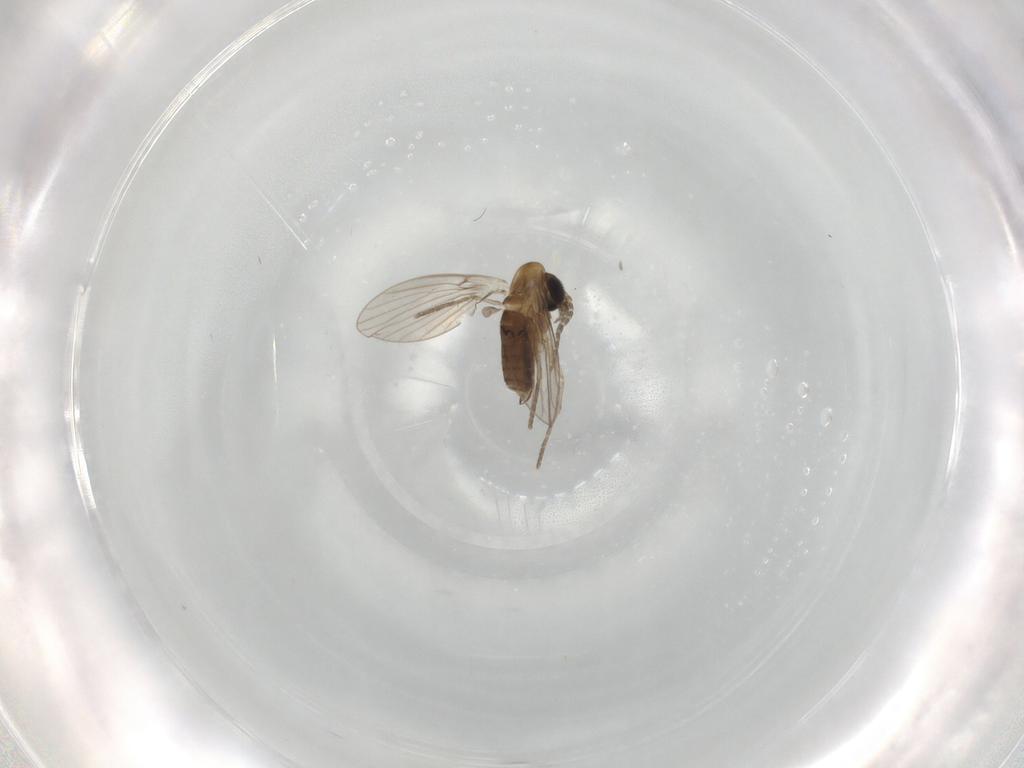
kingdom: Animalia
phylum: Arthropoda
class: Insecta
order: Diptera
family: Dolichopodidae
